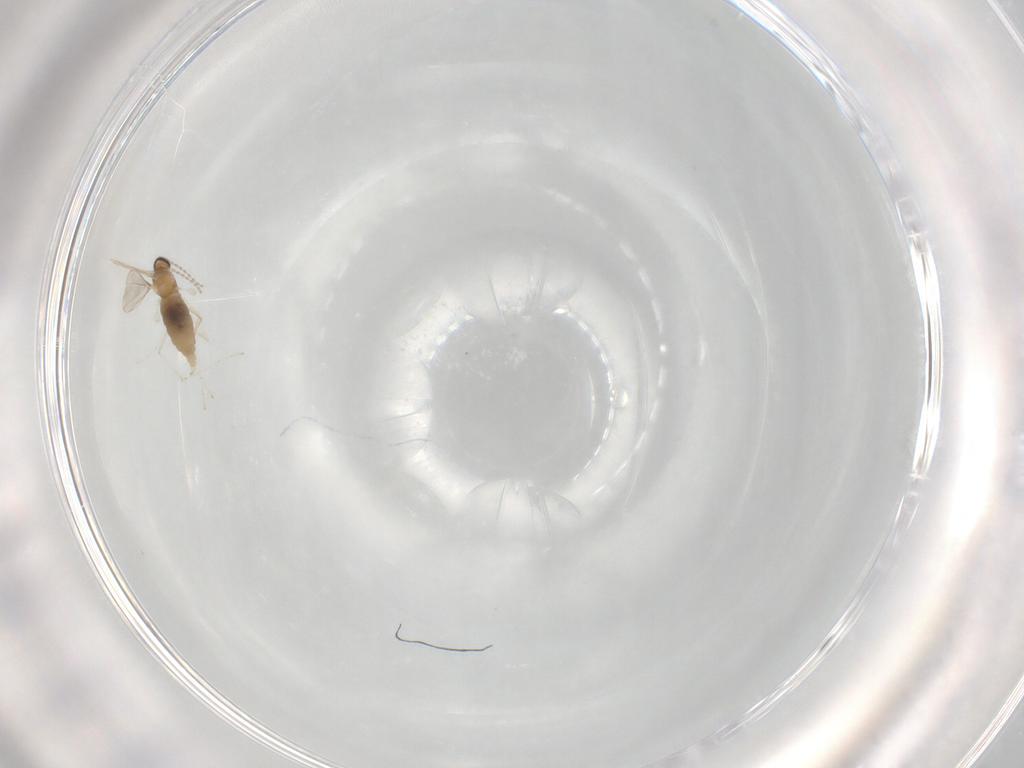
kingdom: Animalia
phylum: Arthropoda
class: Insecta
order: Diptera
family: Phoridae
